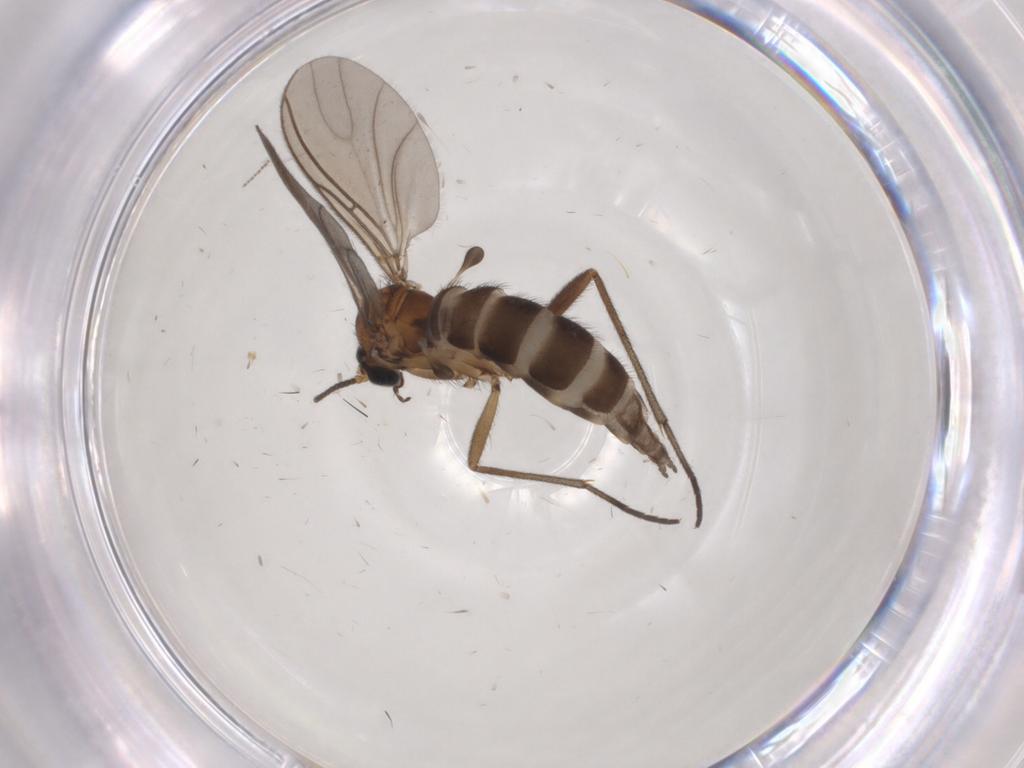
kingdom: Animalia
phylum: Arthropoda
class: Insecta
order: Diptera
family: Sciaridae
